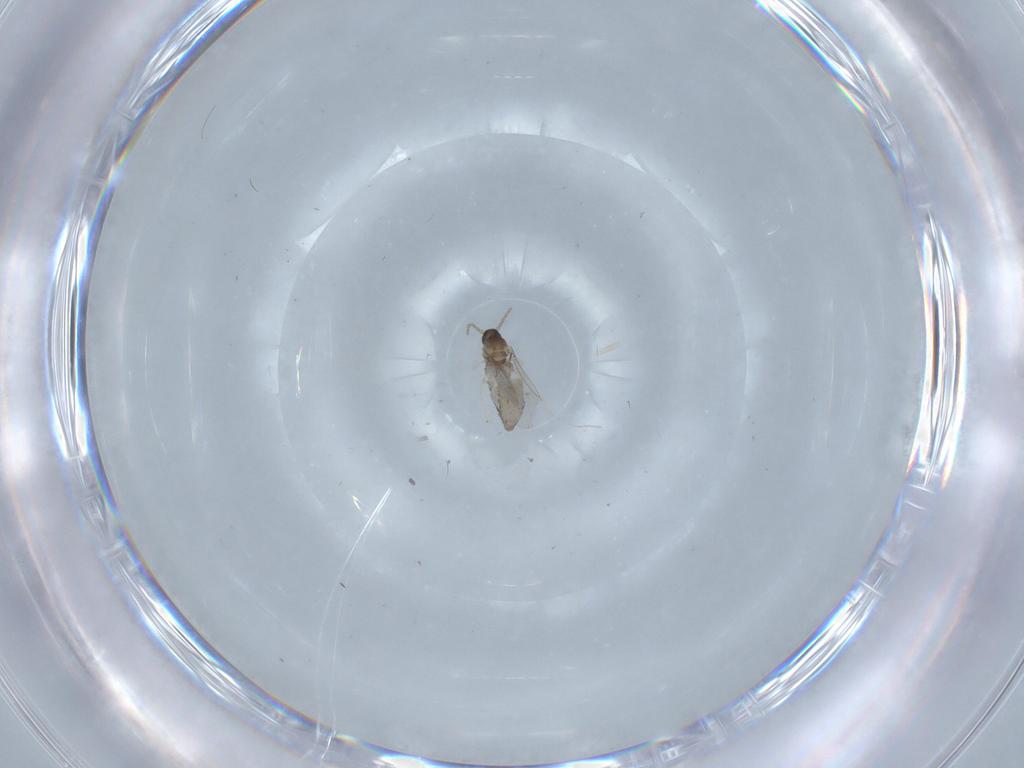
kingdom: Animalia
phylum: Arthropoda
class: Insecta
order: Diptera
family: Cecidomyiidae
